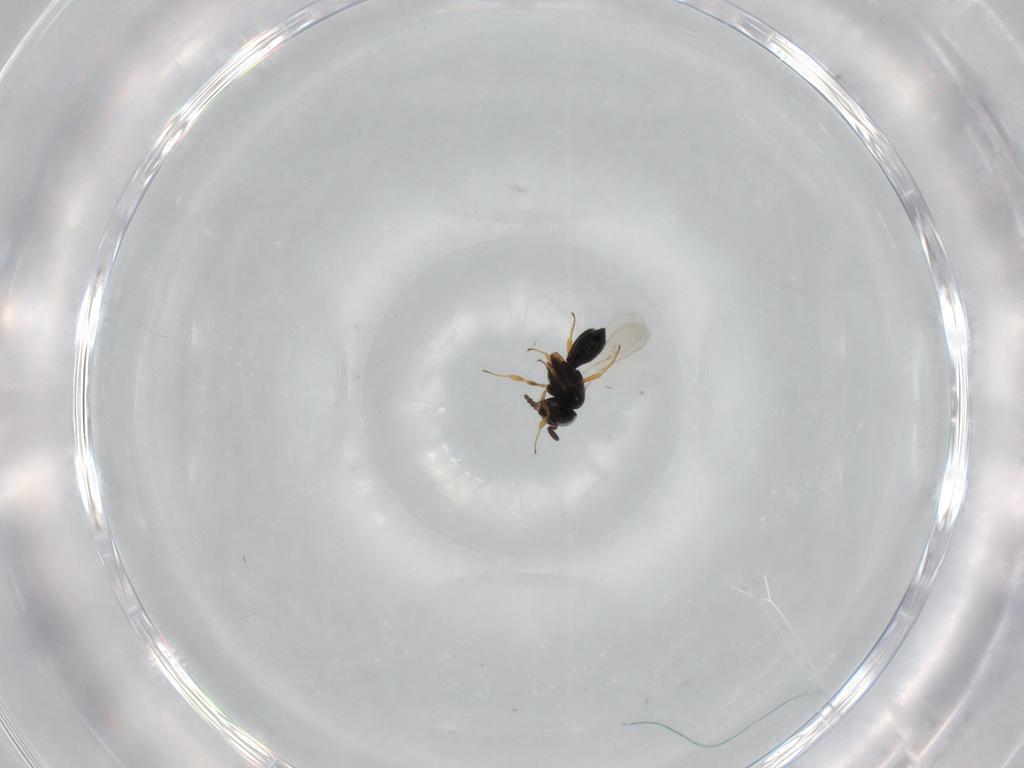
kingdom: Animalia
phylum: Arthropoda
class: Insecta
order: Hymenoptera
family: Scelionidae
